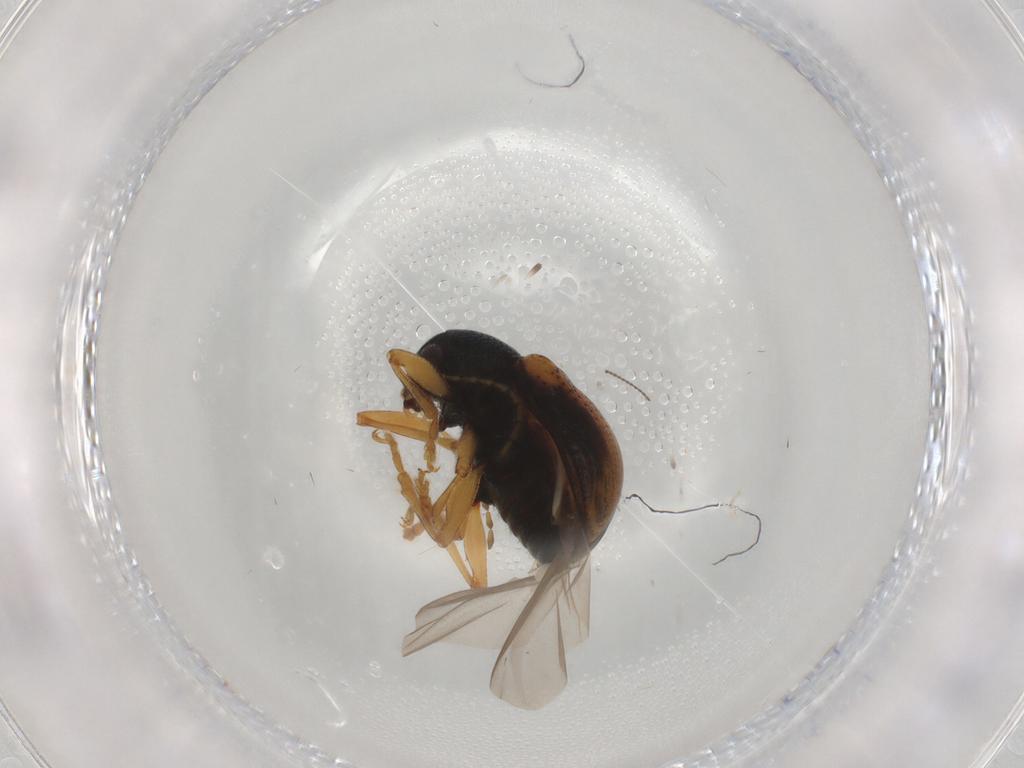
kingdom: Animalia
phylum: Arthropoda
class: Insecta
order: Coleoptera
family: Chrysomelidae
